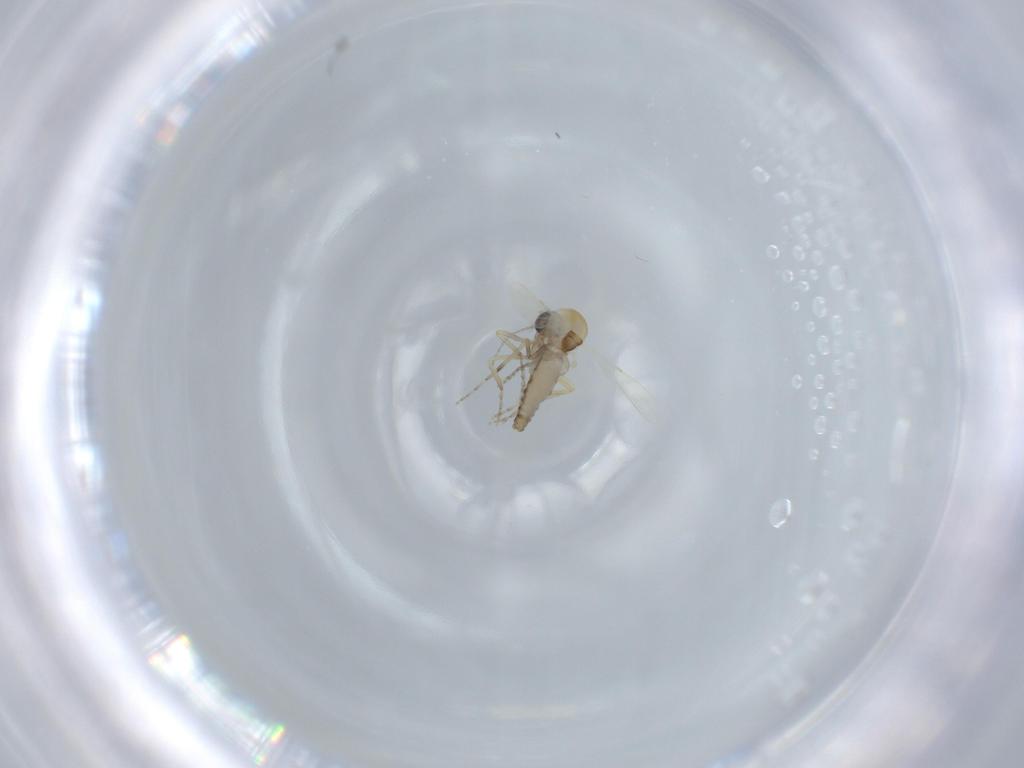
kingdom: Animalia
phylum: Arthropoda
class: Insecta
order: Diptera
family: Ceratopogonidae
